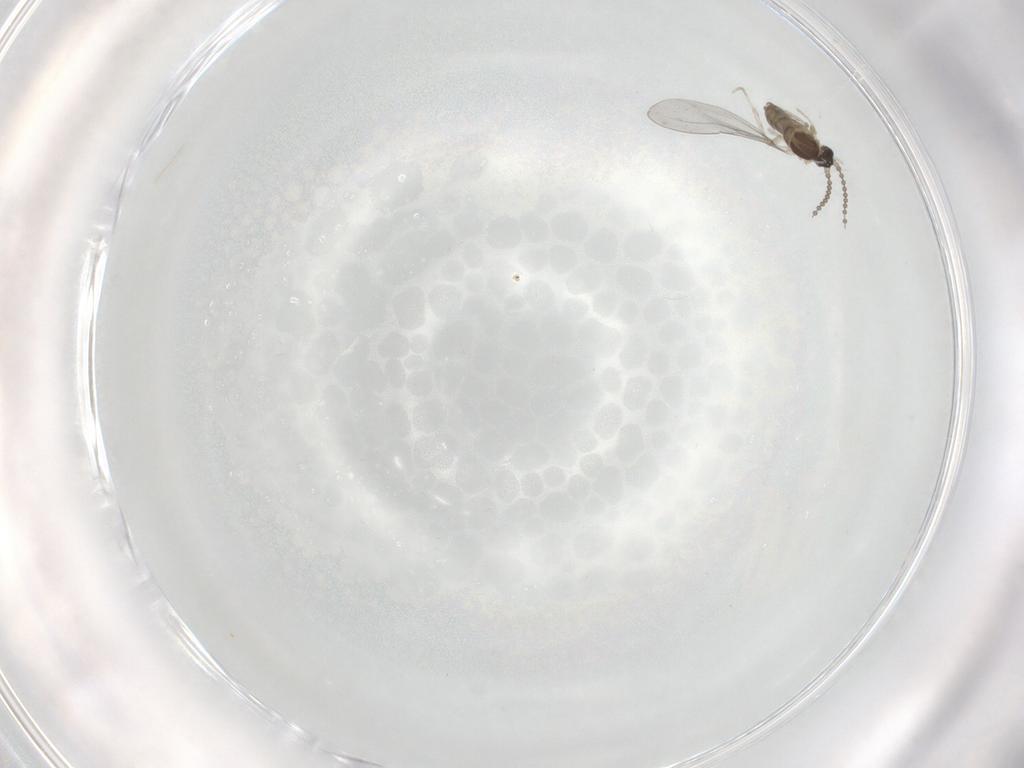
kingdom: Animalia
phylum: Arthropoda
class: Insecta
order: Diptera
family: Cecidomyiidae
